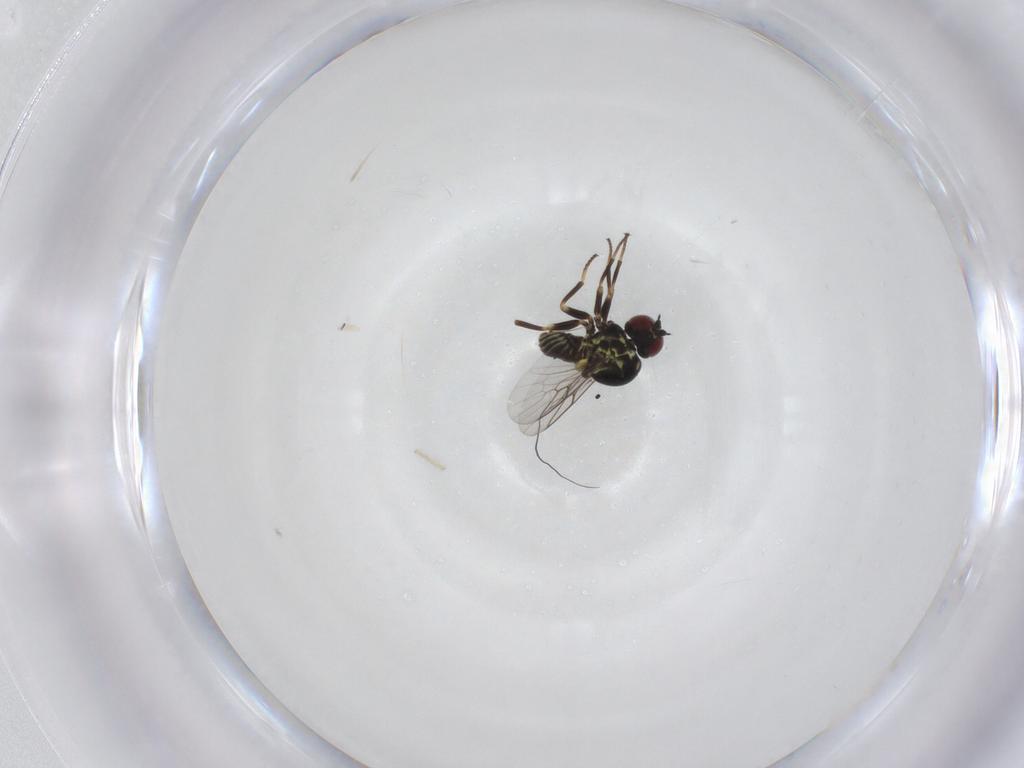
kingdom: Animalia
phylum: Arthropoda
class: Insecta
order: Diptera
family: Mythicomyiidae
